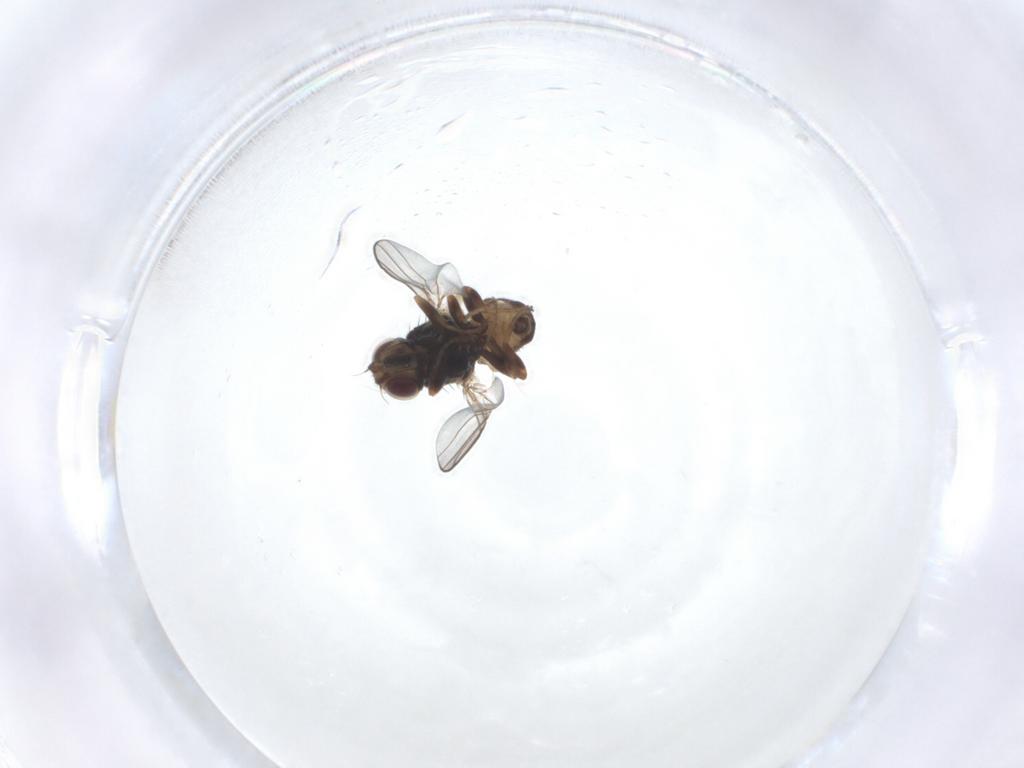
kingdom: Animalia
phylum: Arthropoda
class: Insecta
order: Diptera
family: Chloropidae
